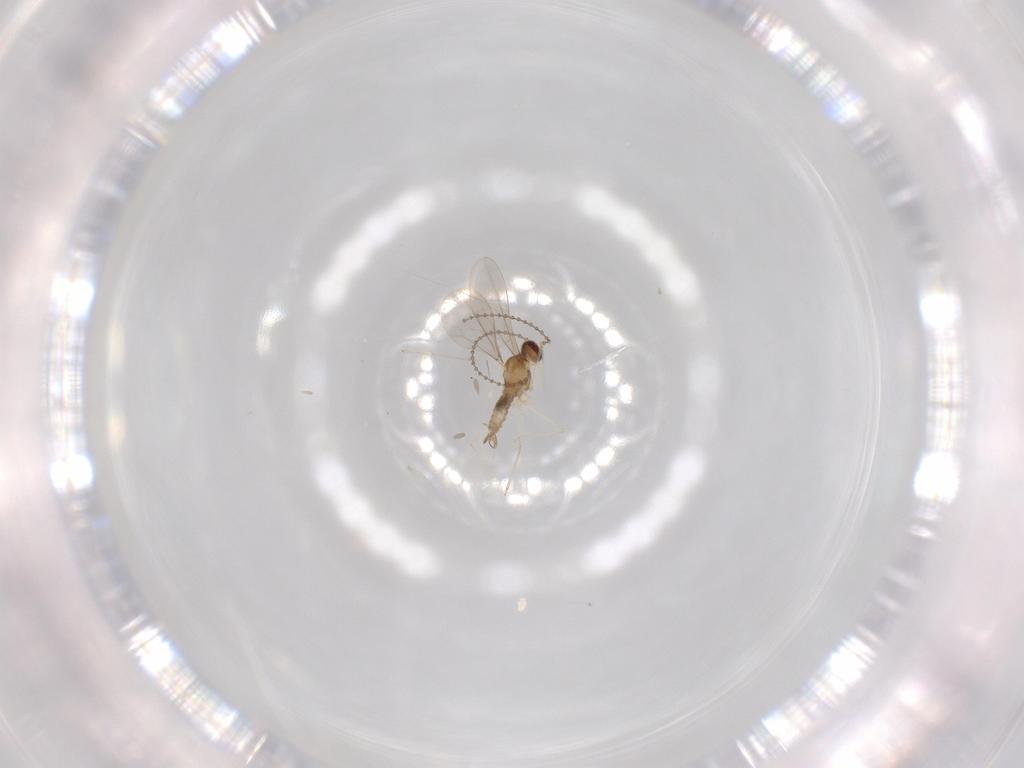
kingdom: Animalia
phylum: Arthropoda
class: Insecta
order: Diptera
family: Cecidomyiidae
